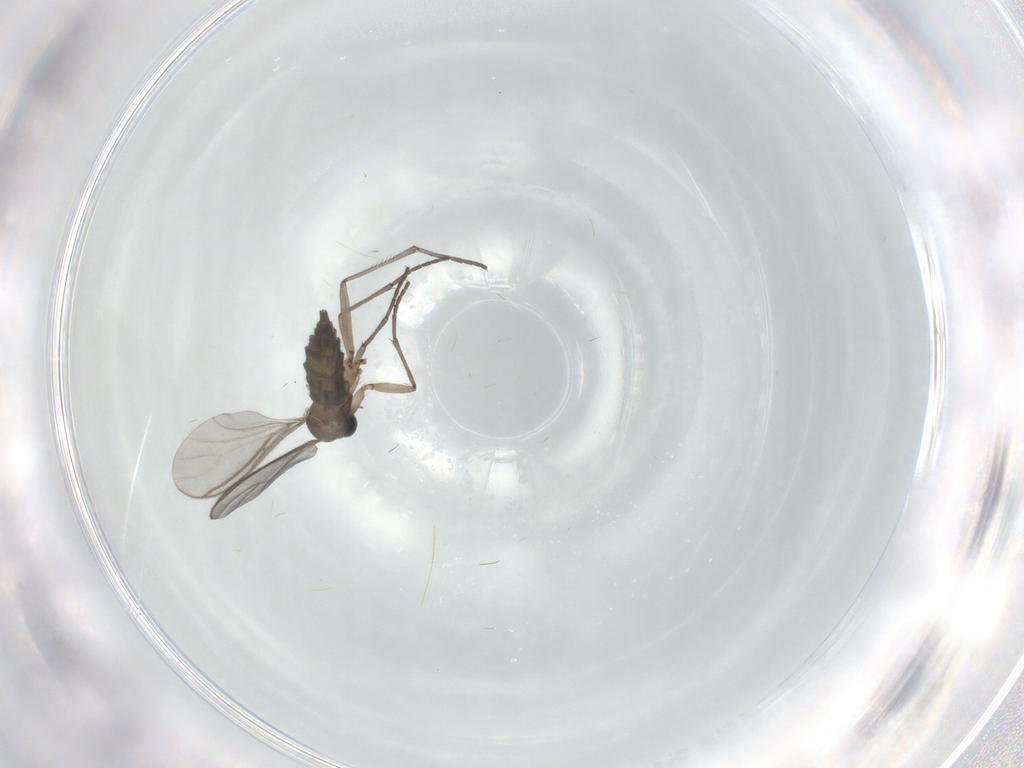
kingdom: Animalia
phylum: Arthropoda
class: Insecta
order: Diptera
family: Sciaridae
